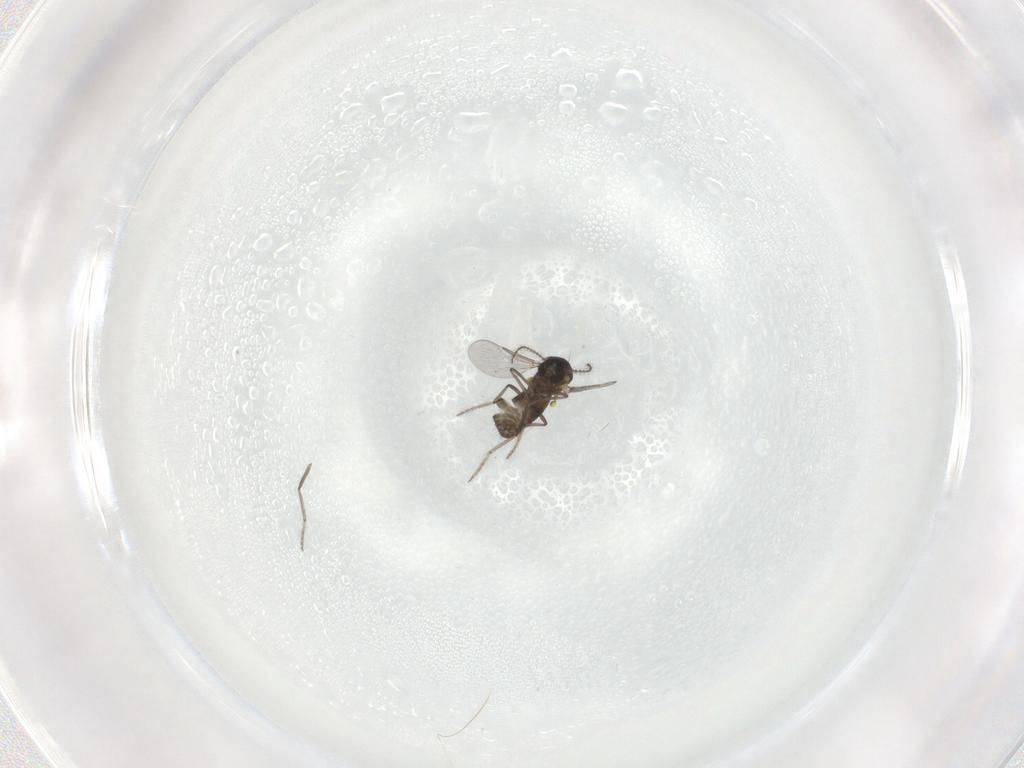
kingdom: Animalia
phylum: Arthropoda
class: Insecta
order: Diptera
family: Ceratopogonidae
